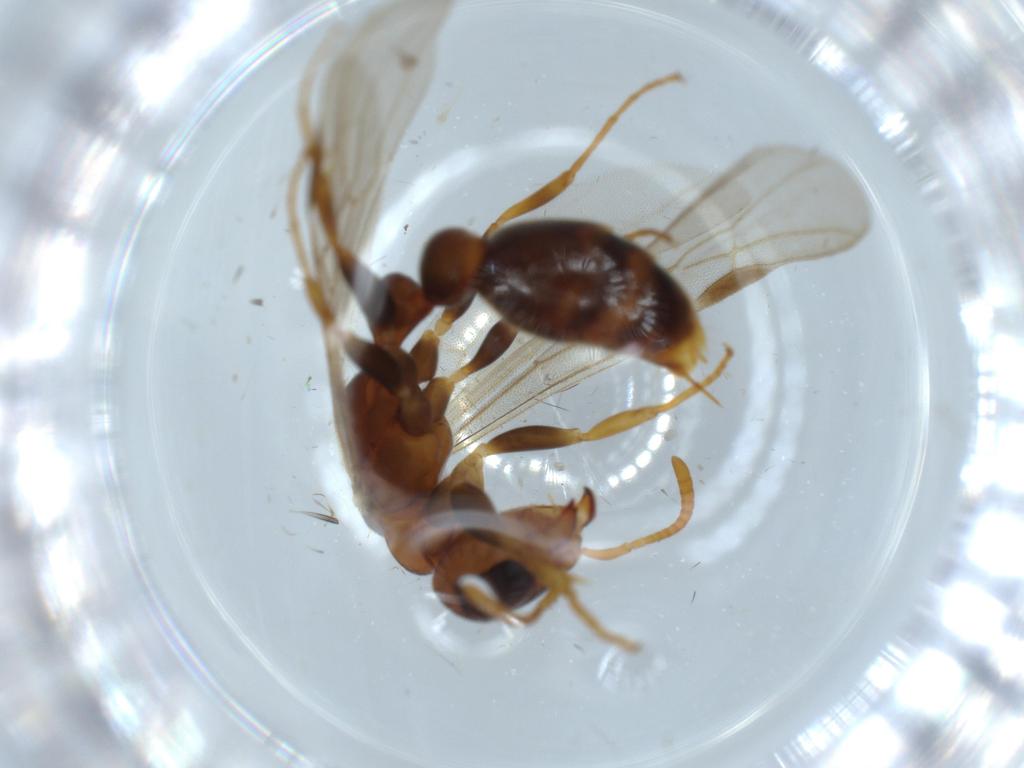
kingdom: Animalia
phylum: Arthropoda
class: Insecta
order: Hymenoptera
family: Formicidae
